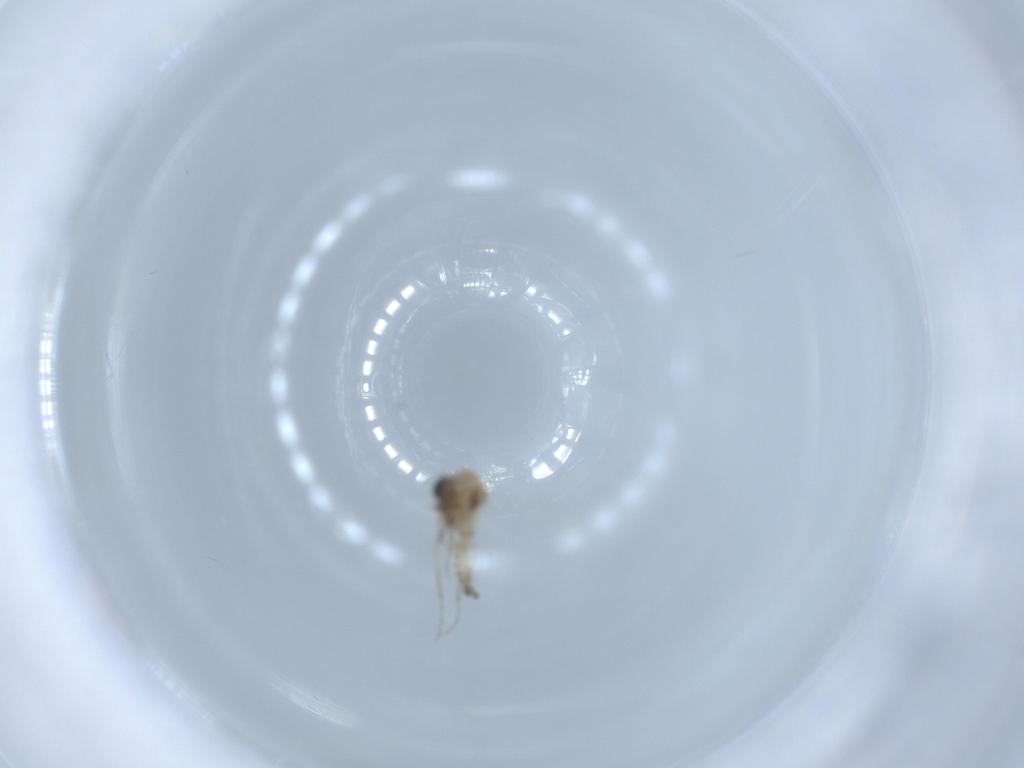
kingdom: Animalia
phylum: Arthropoda
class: Insecta
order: Diptera
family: Ceratopogonidae
